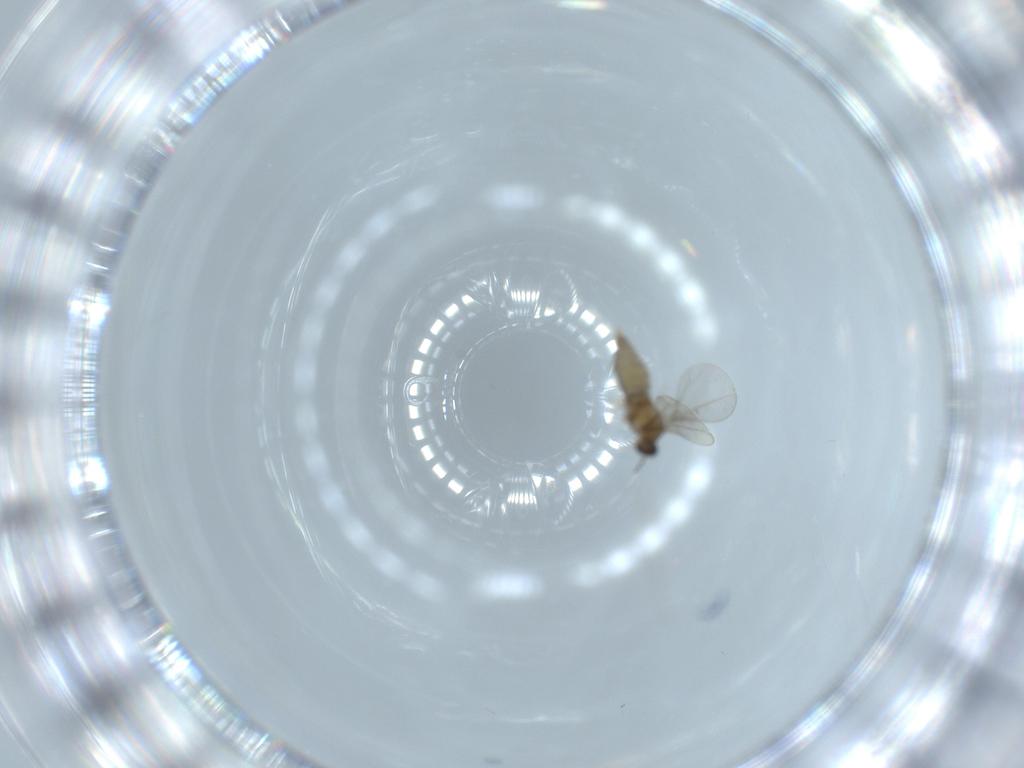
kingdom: Animalia
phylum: Arthropoda
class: Insecta
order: Diptera
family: Cecidomyiidae
